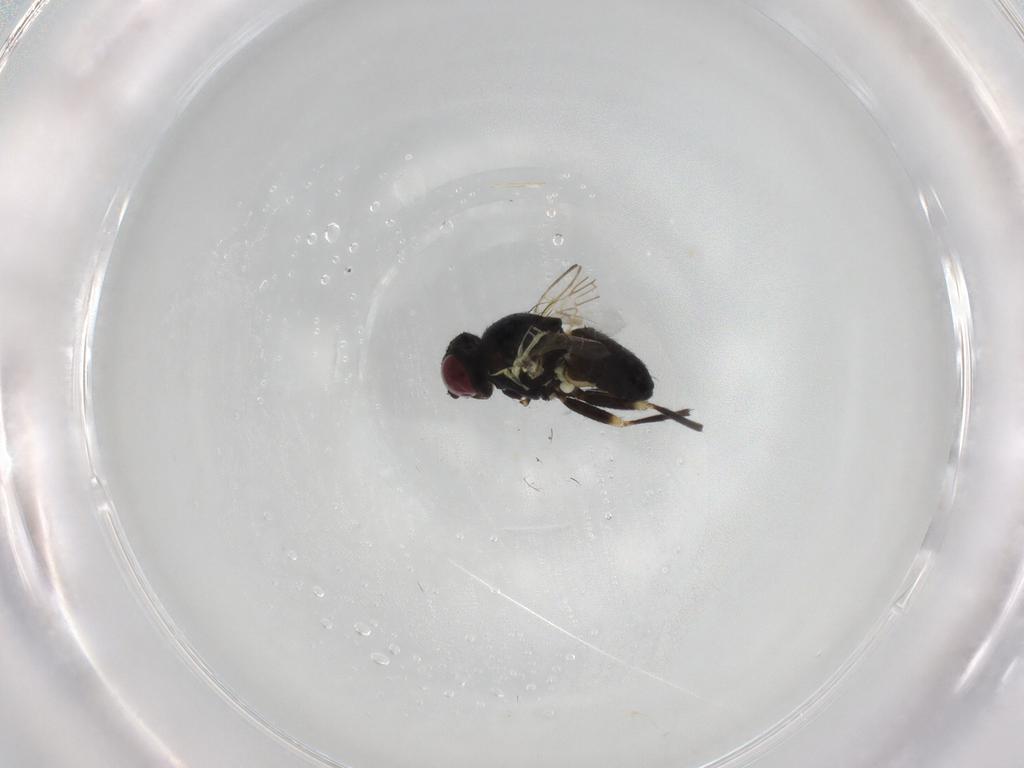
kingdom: Animalia
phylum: Arthropoda
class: Insecta
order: Diptera
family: Agromyzidae
